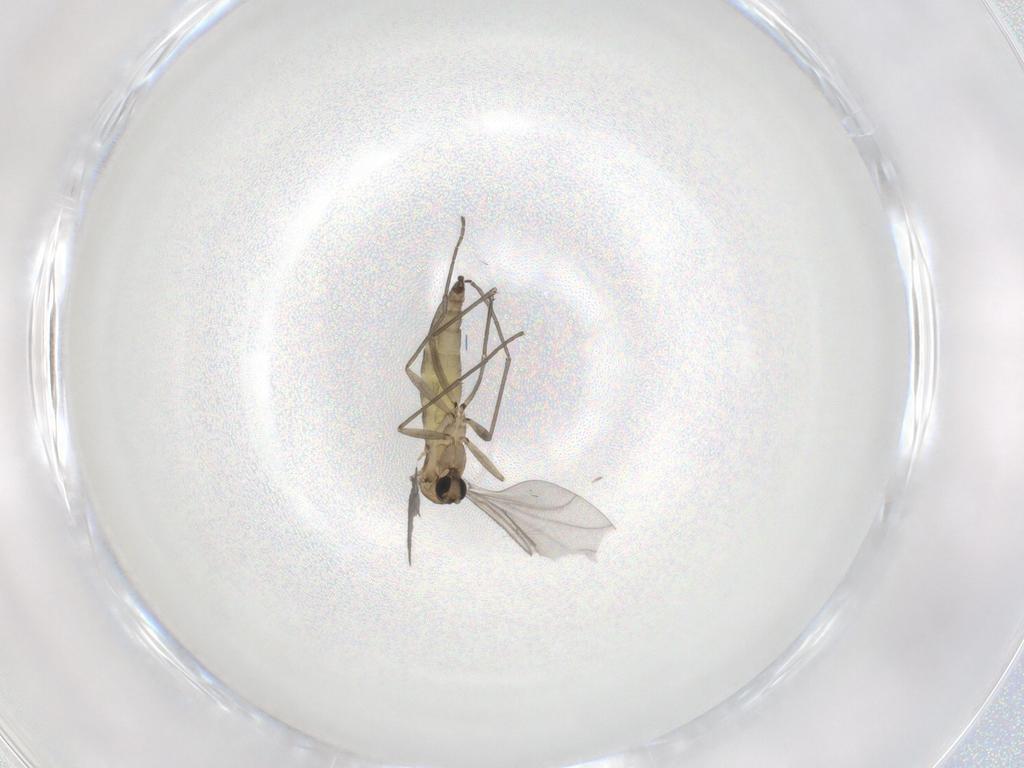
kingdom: Animalia
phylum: Arthropoda
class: Insecta
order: Diptera
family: Sciaridae
